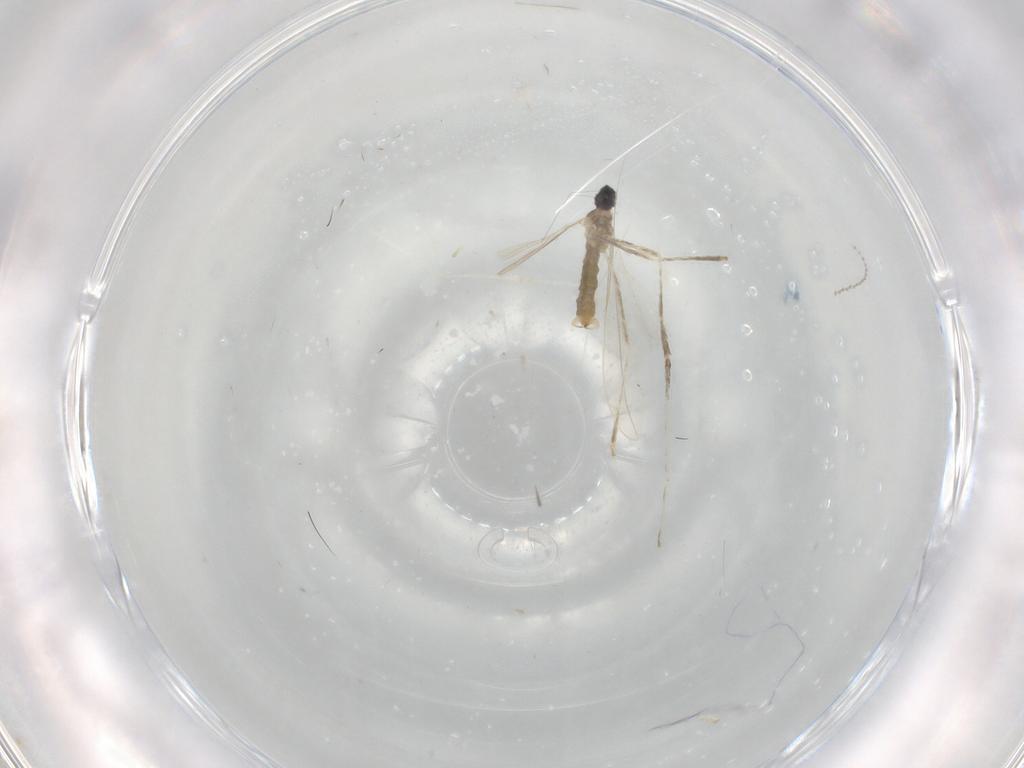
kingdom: Animalia
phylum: Arthropoda
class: Insecta
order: Diptera
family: Cecidomyiidae
